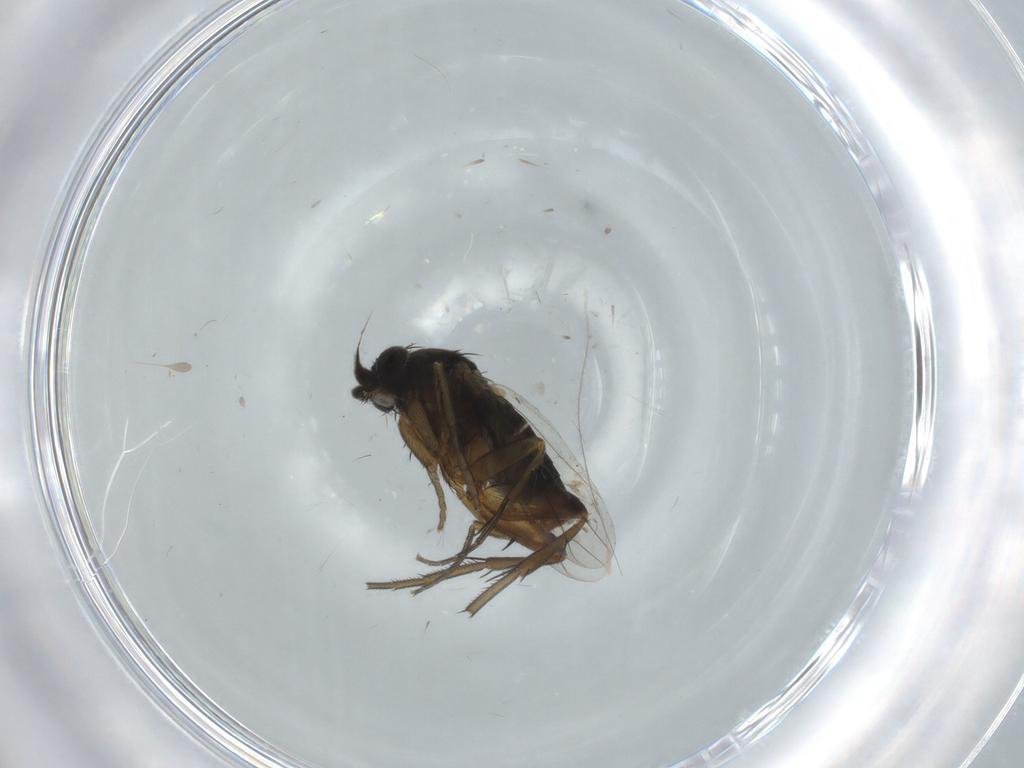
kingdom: Animalia
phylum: Arthropoda
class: Insecta
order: Diptera
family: Phoridae
